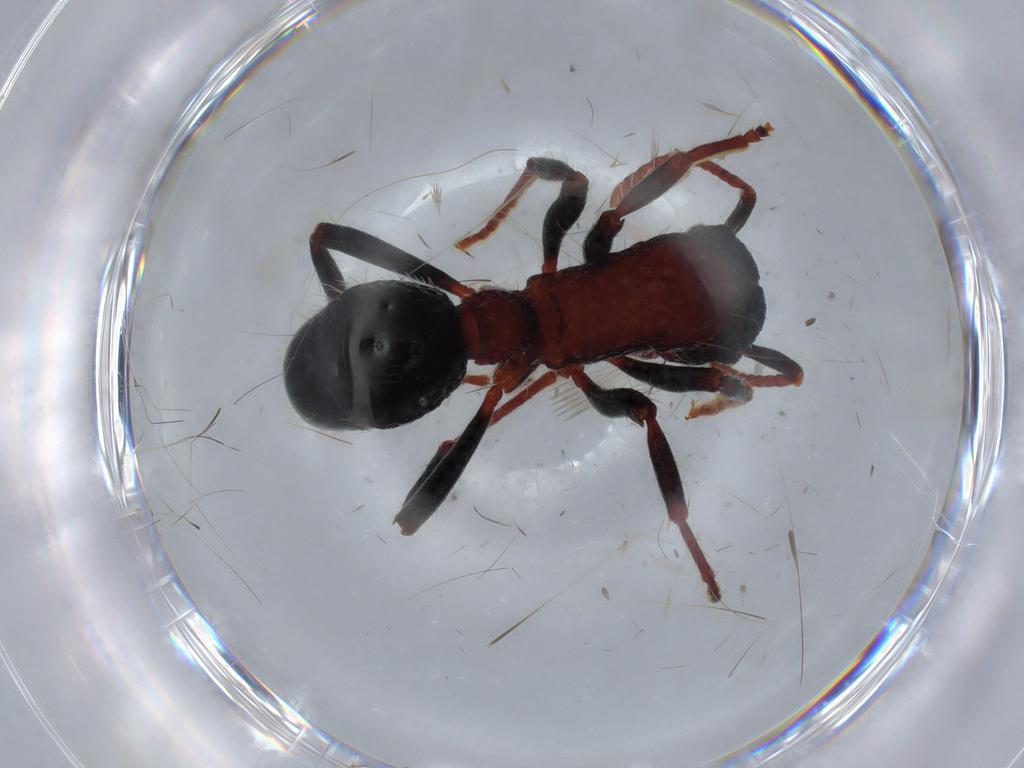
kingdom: Animalia
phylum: Arthropoda
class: Insecta
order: Hymenoptera
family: Formicidae
